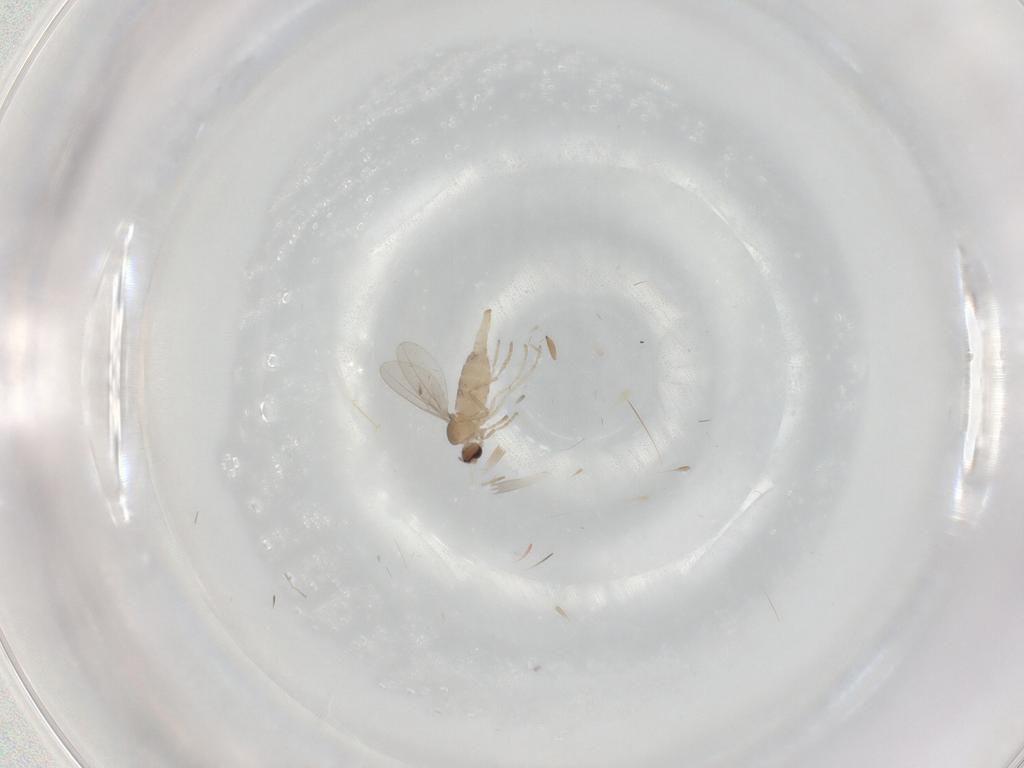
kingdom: Animalia
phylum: Arthropoda
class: Insecta
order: Diptera
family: Cecidomyiidae
